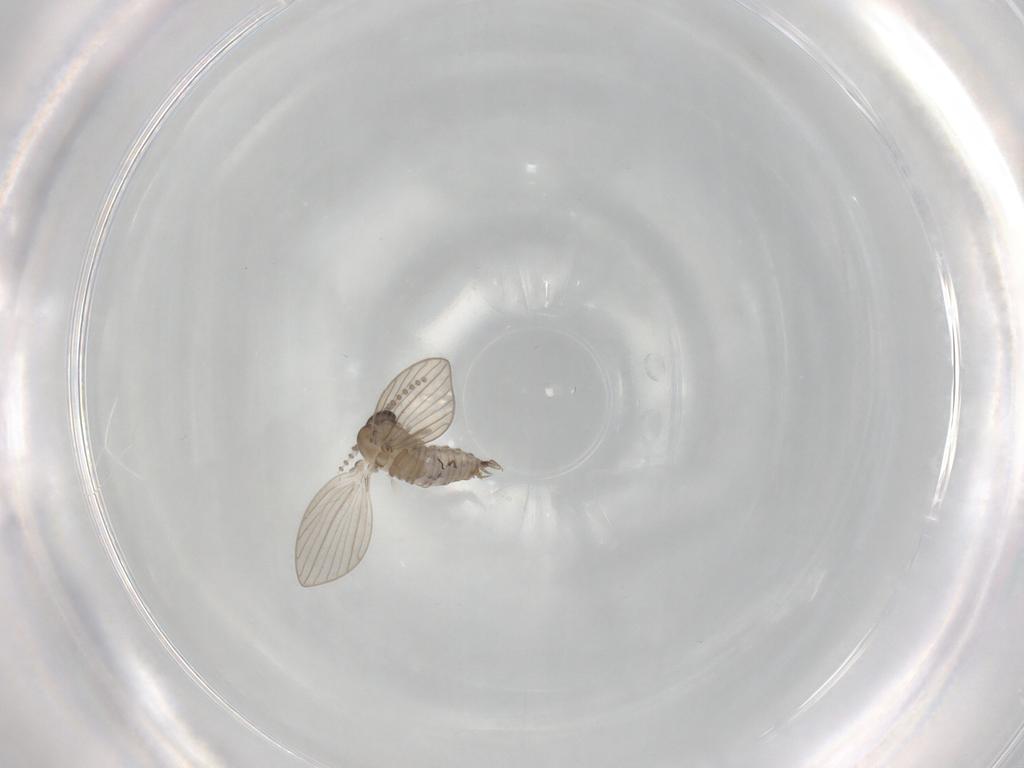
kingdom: Animalia
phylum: Arthropoda
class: Insecta
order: Diptera
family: Psychodidae
